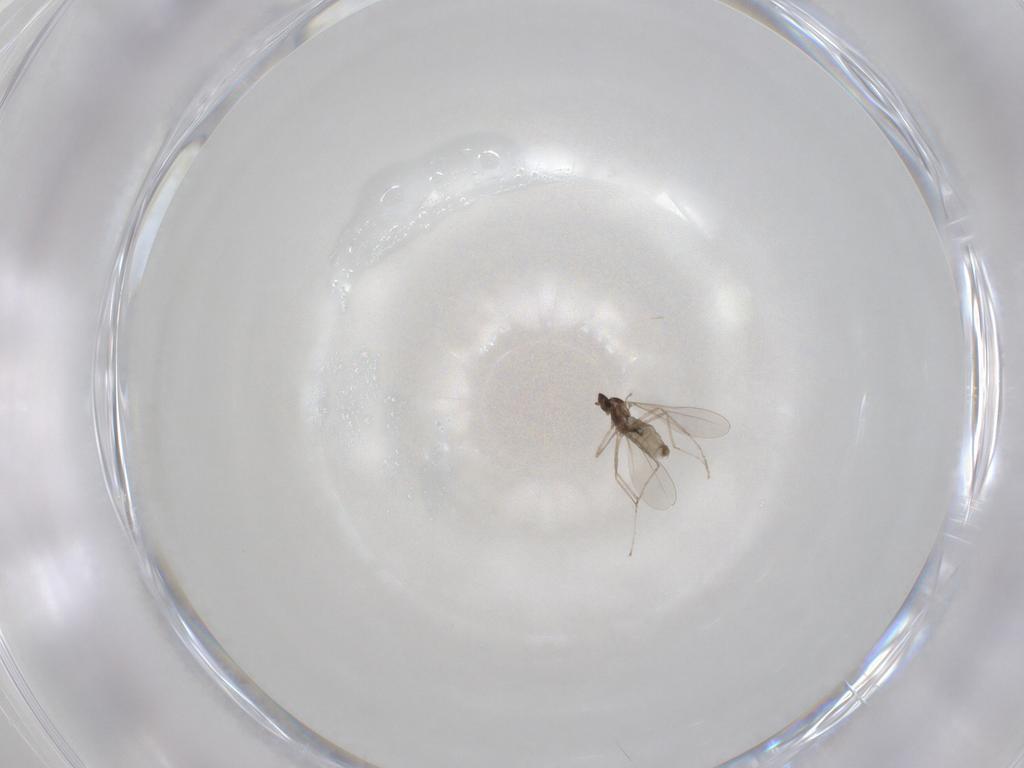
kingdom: Animalia
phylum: Arthropoda
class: Insecta
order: Diptera
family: Cecidomyiidae
